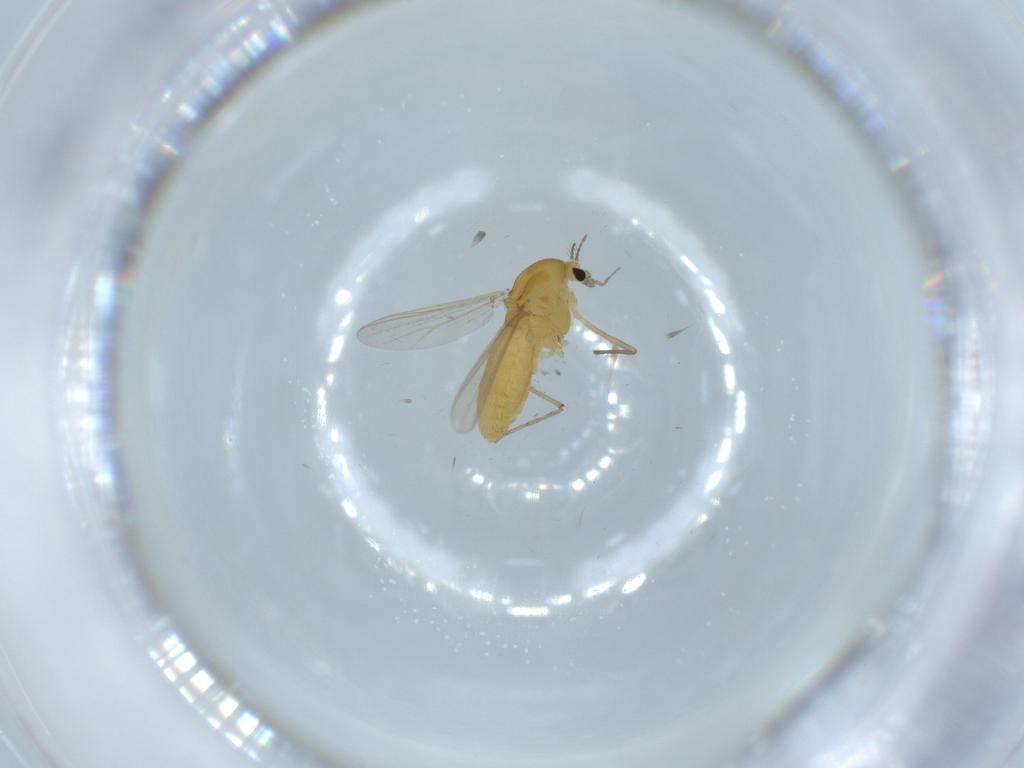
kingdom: Animalia
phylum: Arthropoda
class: Insecta
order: Diptera
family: Chironomidae
